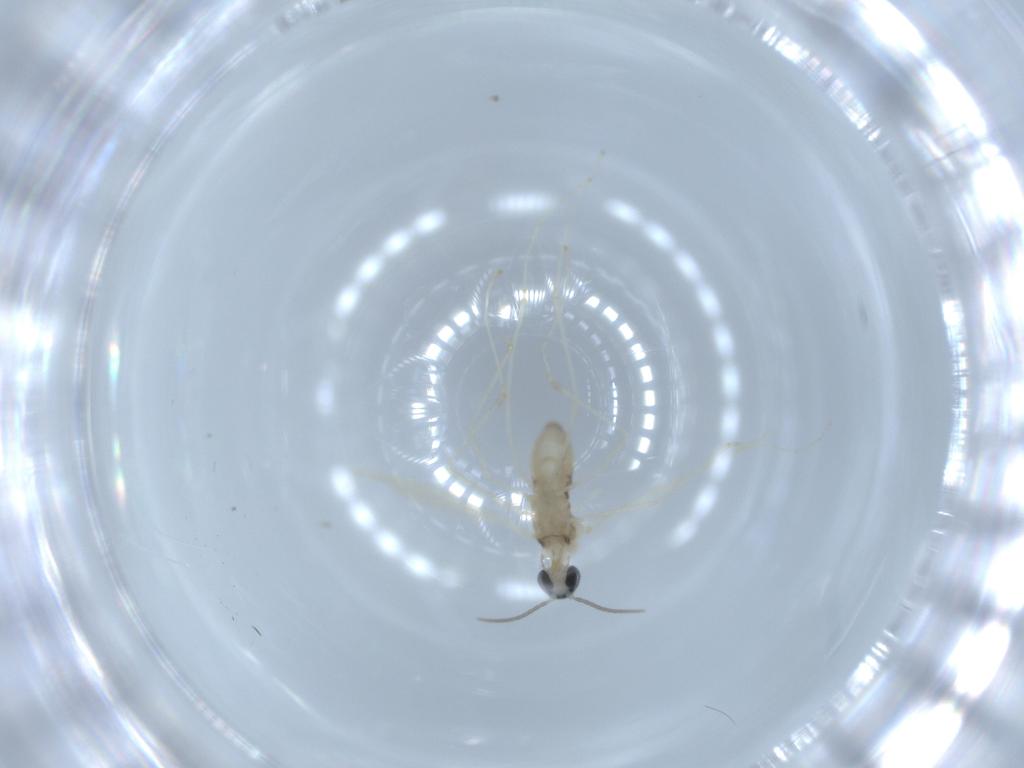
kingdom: Animalia
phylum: Arthropoda
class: Insecta
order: Diptera
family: Cecidomyiidae
